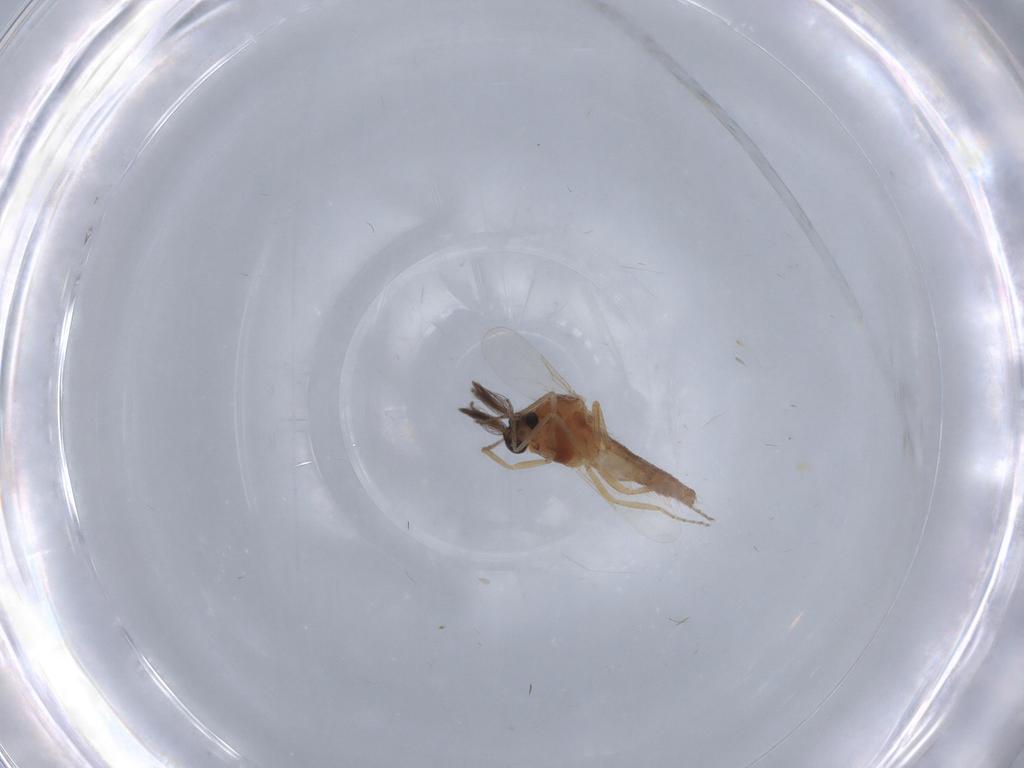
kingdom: Animalia
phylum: Arthropoda
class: Insecta
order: Diptera
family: Ceratopogonidae
